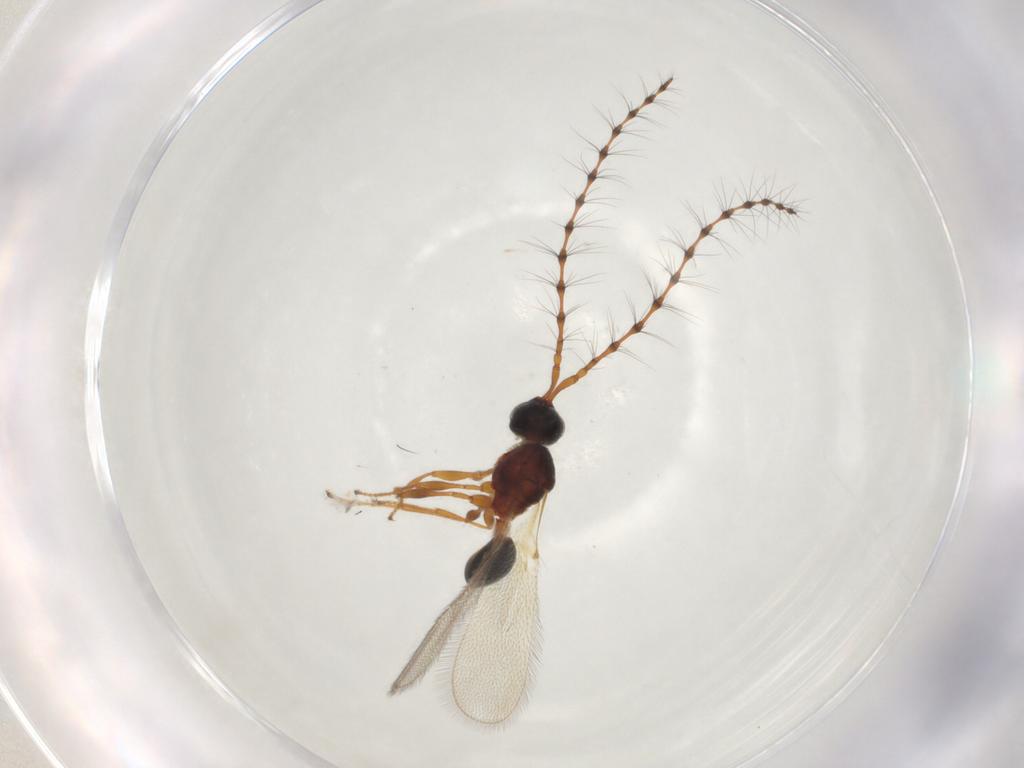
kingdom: Animalia
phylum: Arthropoda
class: Insecta
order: Hymenoptera
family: Diapriidae
